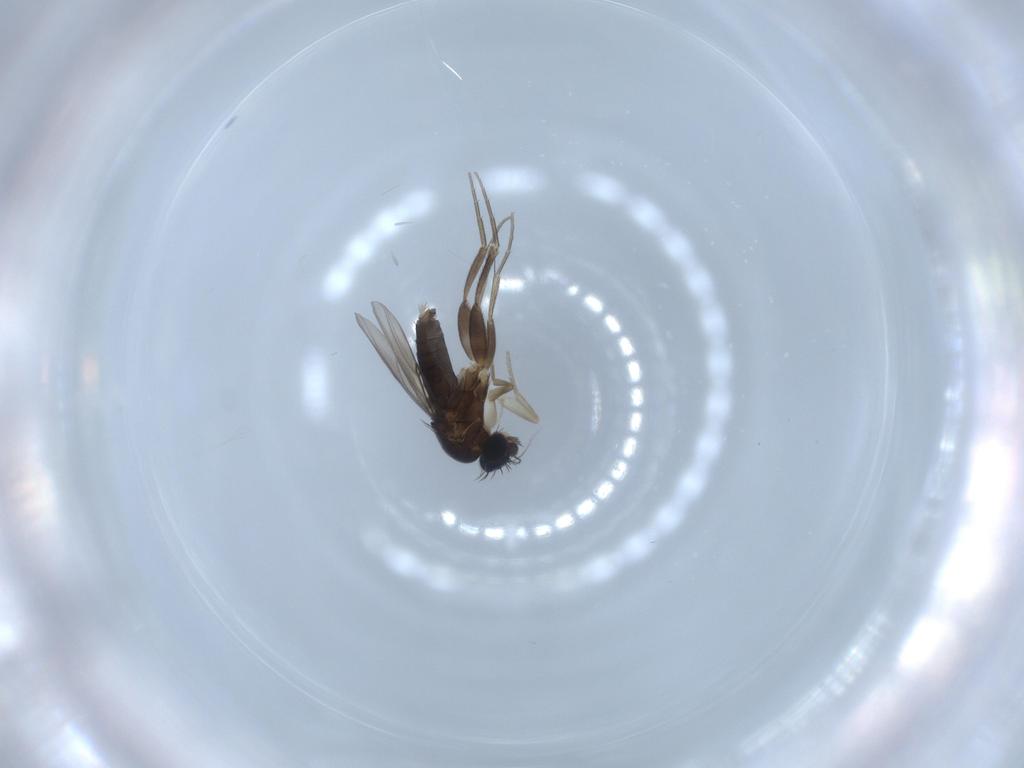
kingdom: Animalia
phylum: Arthropoda
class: Insecta
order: Diptera
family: Phoridae
